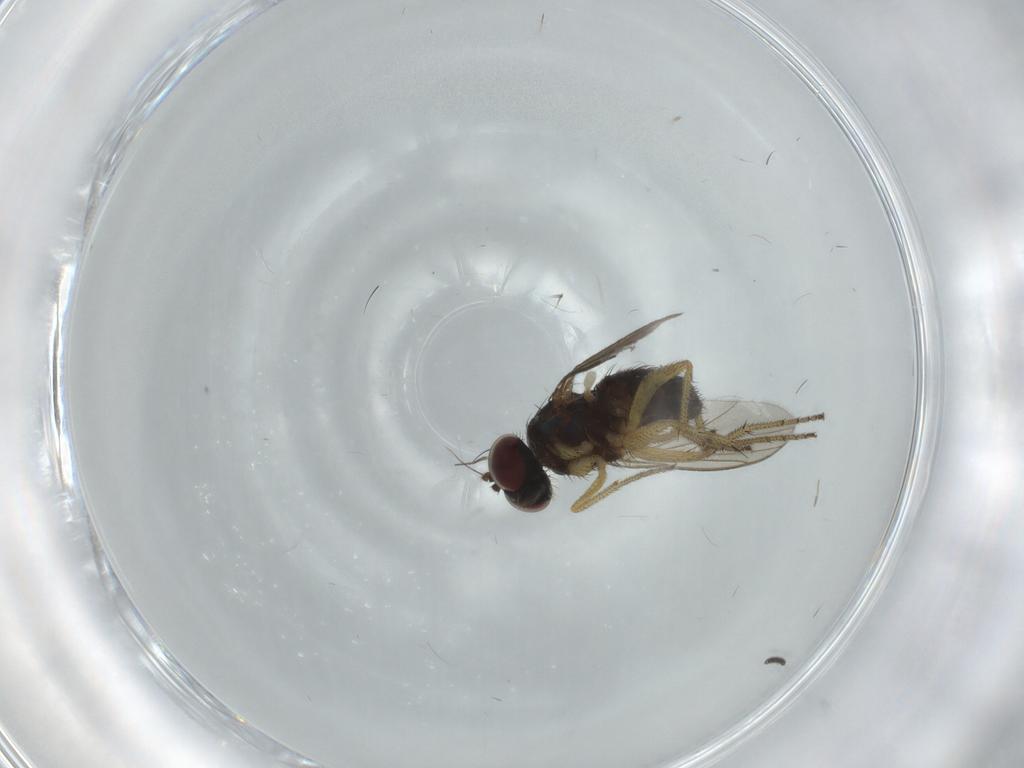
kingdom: Animalia
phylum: Arthropoda
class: Insecta
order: Diptera
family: Dolichopodidae
